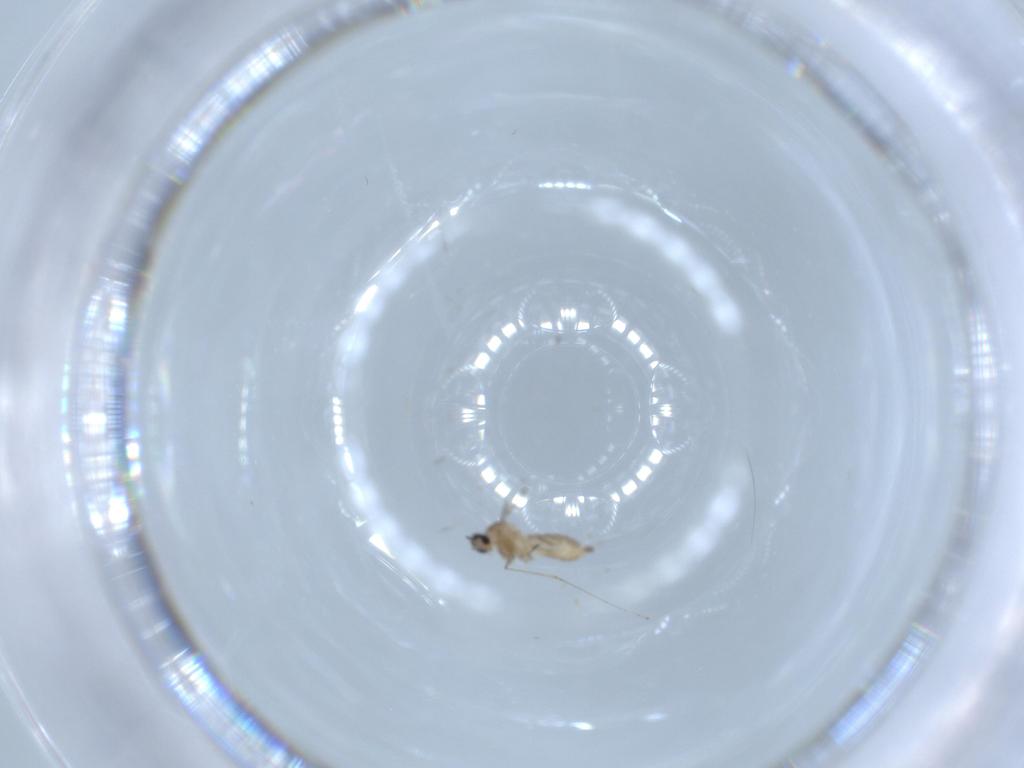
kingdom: Animalia
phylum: Arthropoda
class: Insecta
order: Diptera
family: Cecidomyiidae
